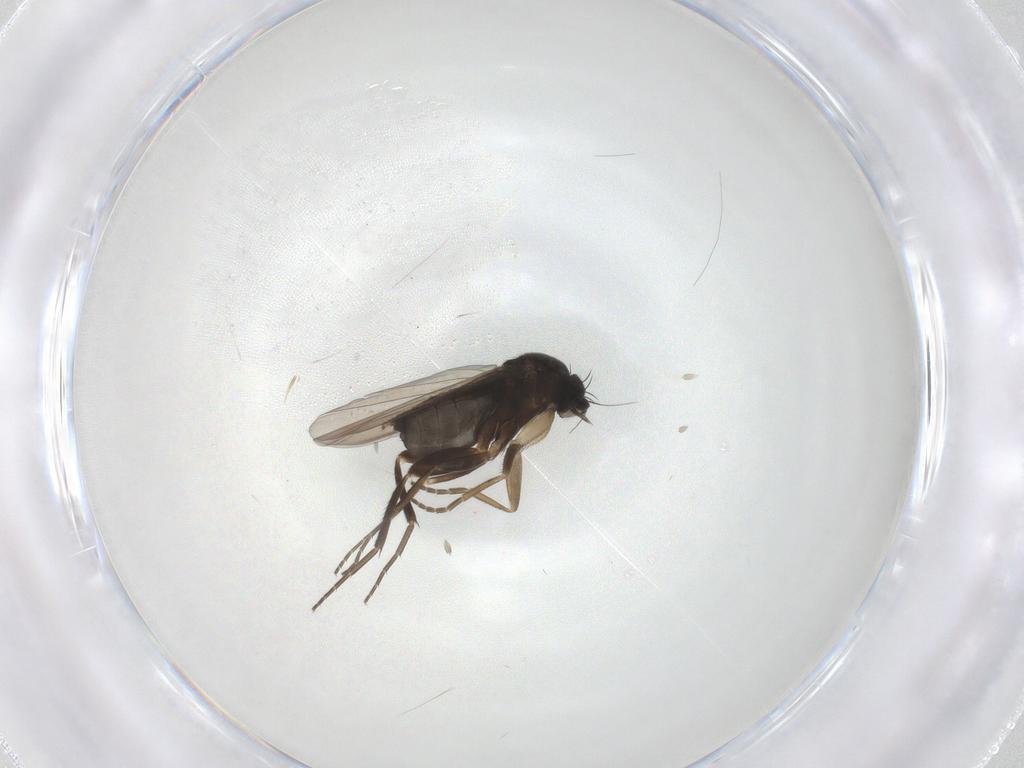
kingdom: Animalia
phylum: Arthropoda
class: Insecta
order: Diptera
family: Phoridae
